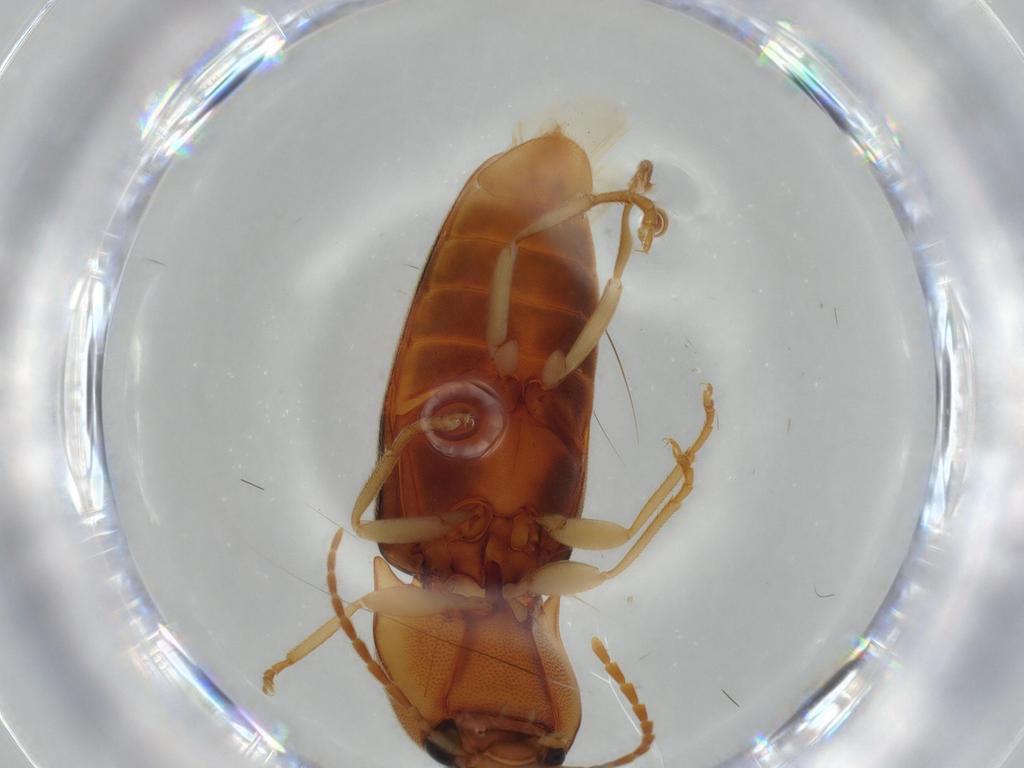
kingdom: Animalia
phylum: Arthropoda
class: Insecta
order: Coleoptera
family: Elateridae
